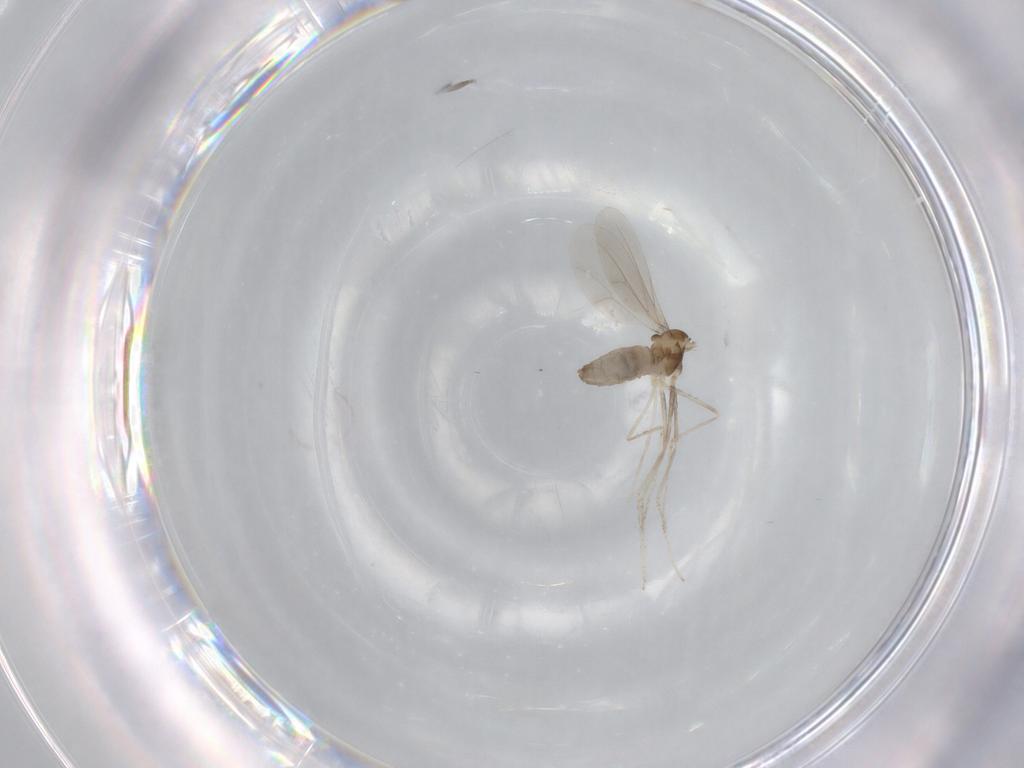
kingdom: Animalia
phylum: Arthropoda
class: Insecta
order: Diptera
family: Cecidomyiidae
